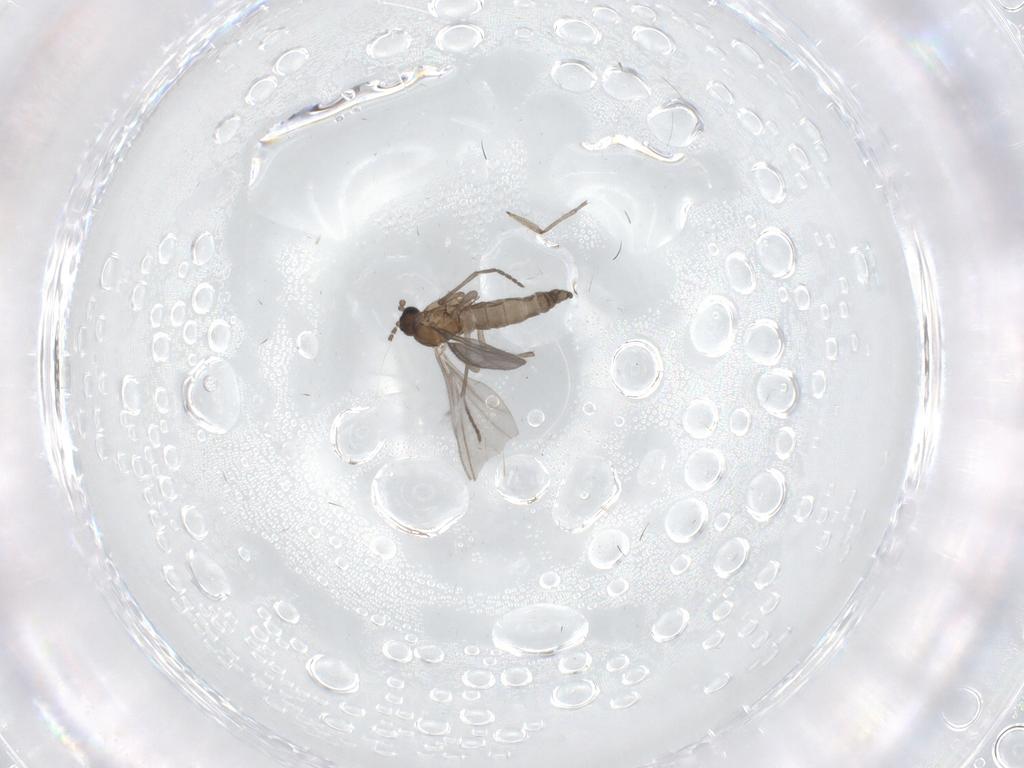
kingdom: Animalia
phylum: Arthropoda
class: Insecta
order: Diptera
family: Sciaridae
